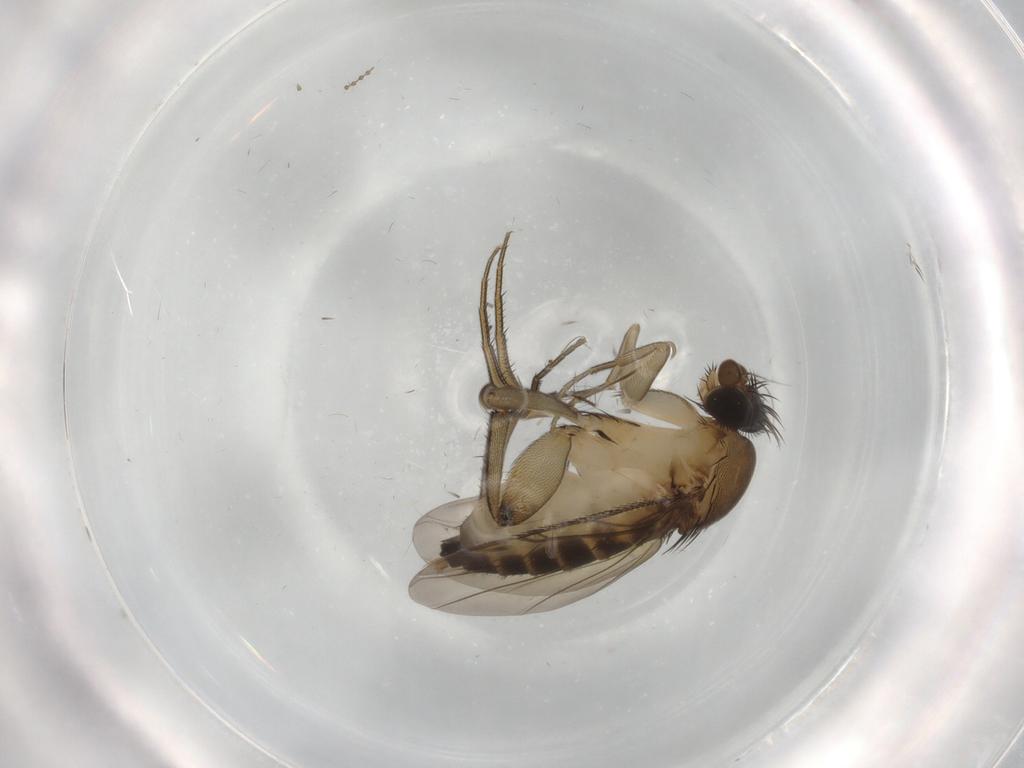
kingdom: Animalia
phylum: Arthropoda
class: Insecta
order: Diptera
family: Phoridae
